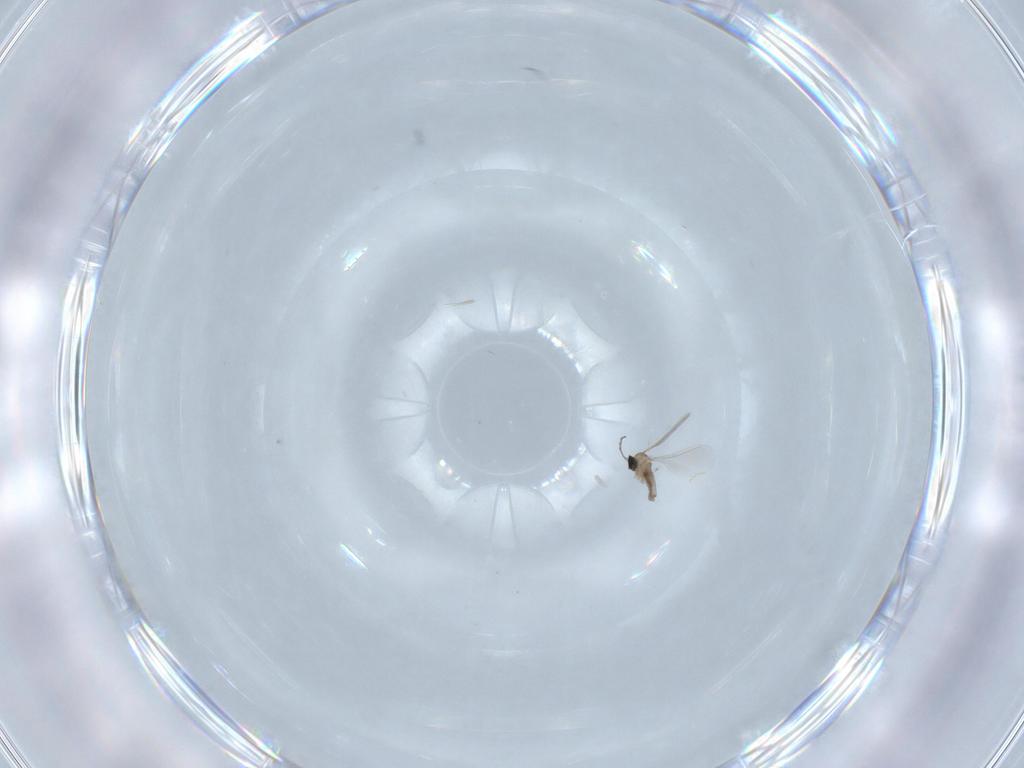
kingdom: Animalia
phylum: Arthropoda
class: Insecta
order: Diptera
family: Cecidomyiidae
